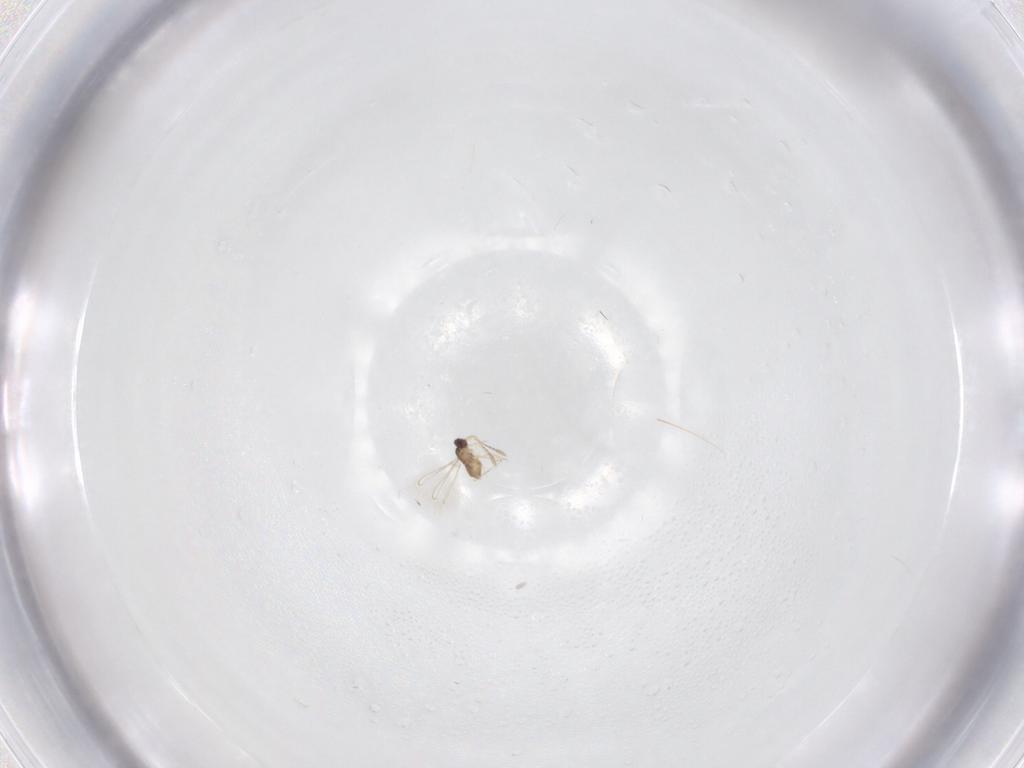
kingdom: Animalia
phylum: Arthropoda
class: Insecta
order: Hymenoptera
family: Mymaridae
